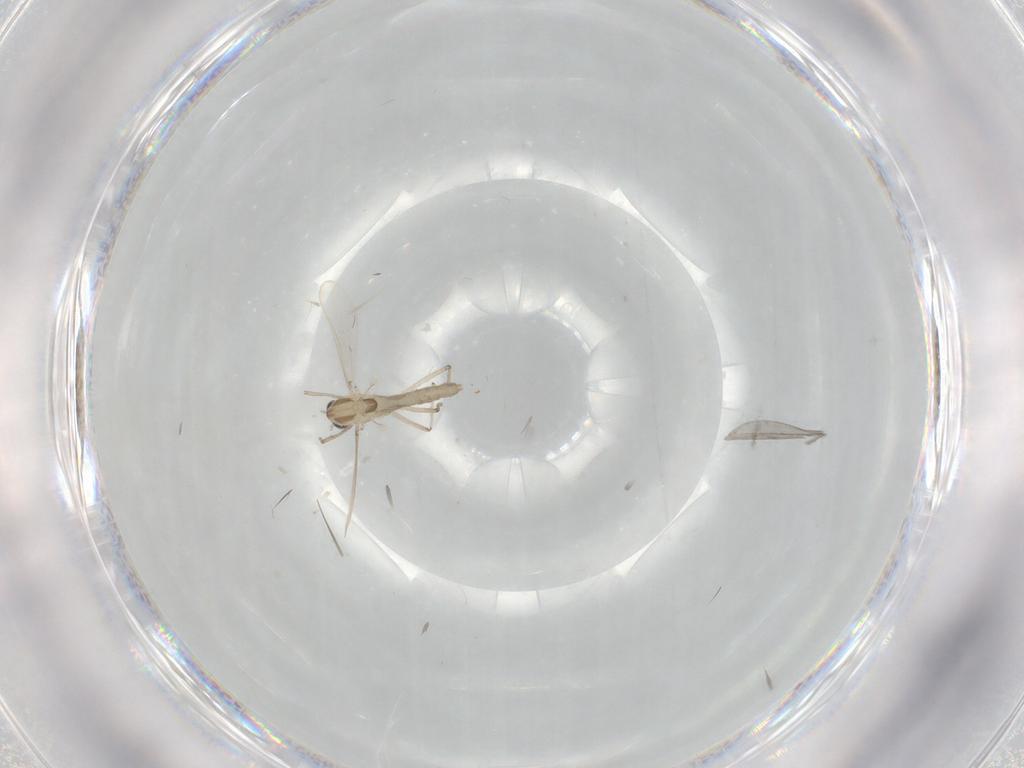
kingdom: Animalia
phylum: Arthropoda
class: Insecta
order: Diptera
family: Chironomidae
